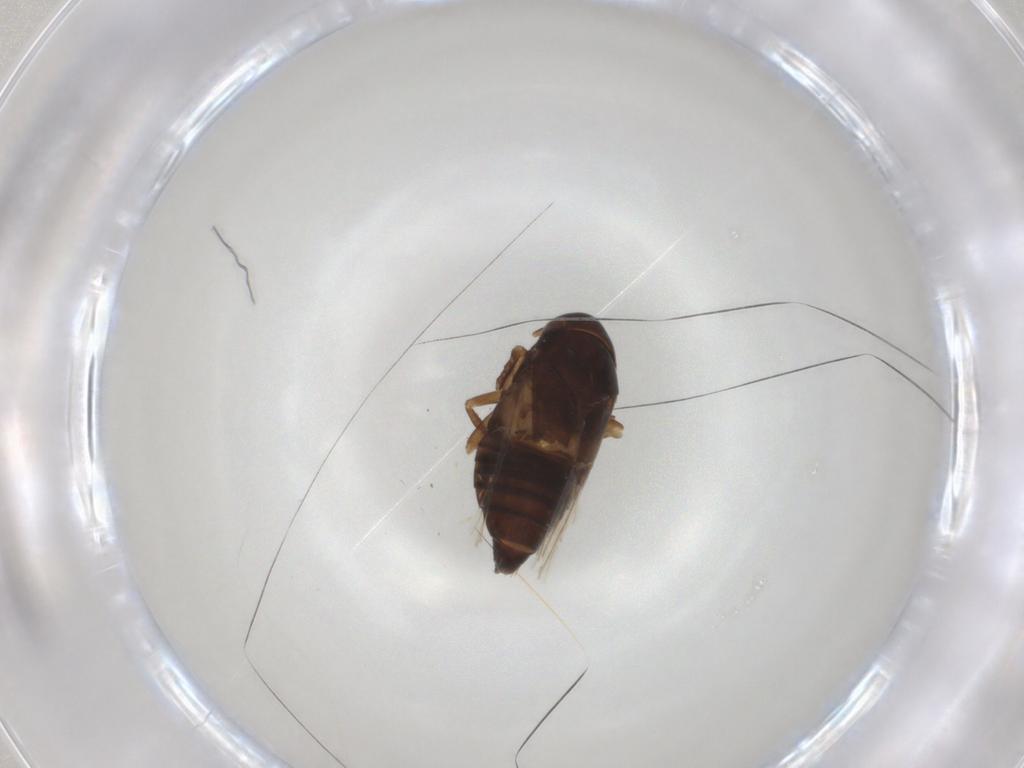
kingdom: Animalia
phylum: Arthropoda
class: Insecta
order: Hemiptera
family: Cicadellidae
